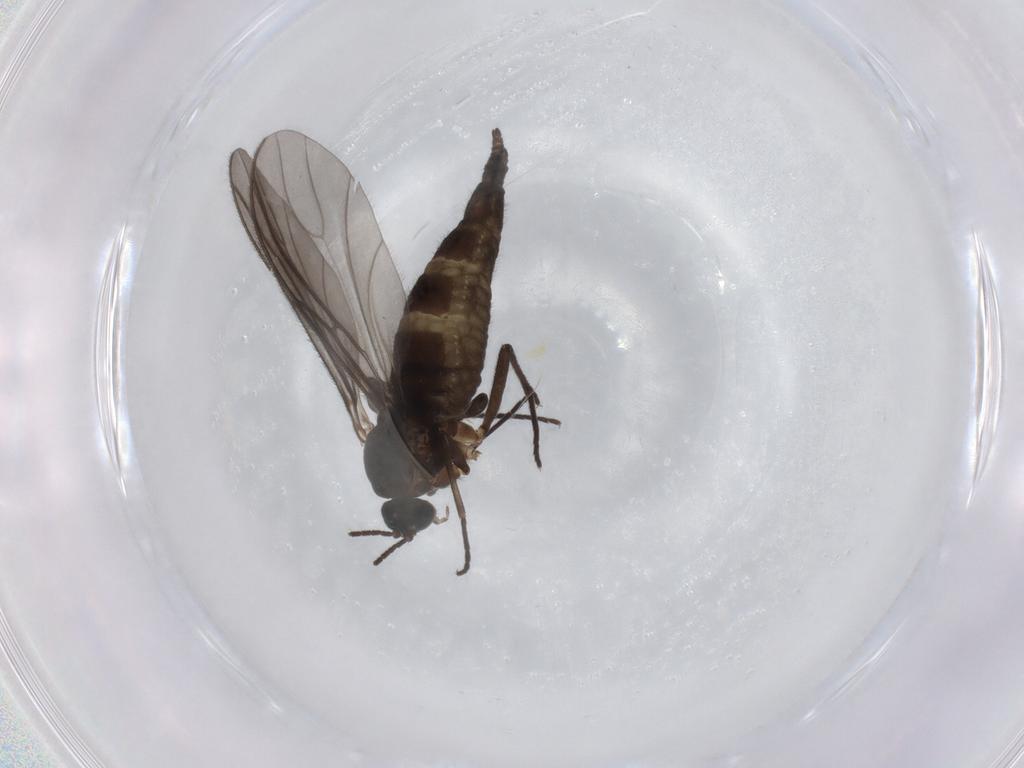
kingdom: Animalia
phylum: Arthropoda
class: Insecta
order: Diptera
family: Sciaridae
